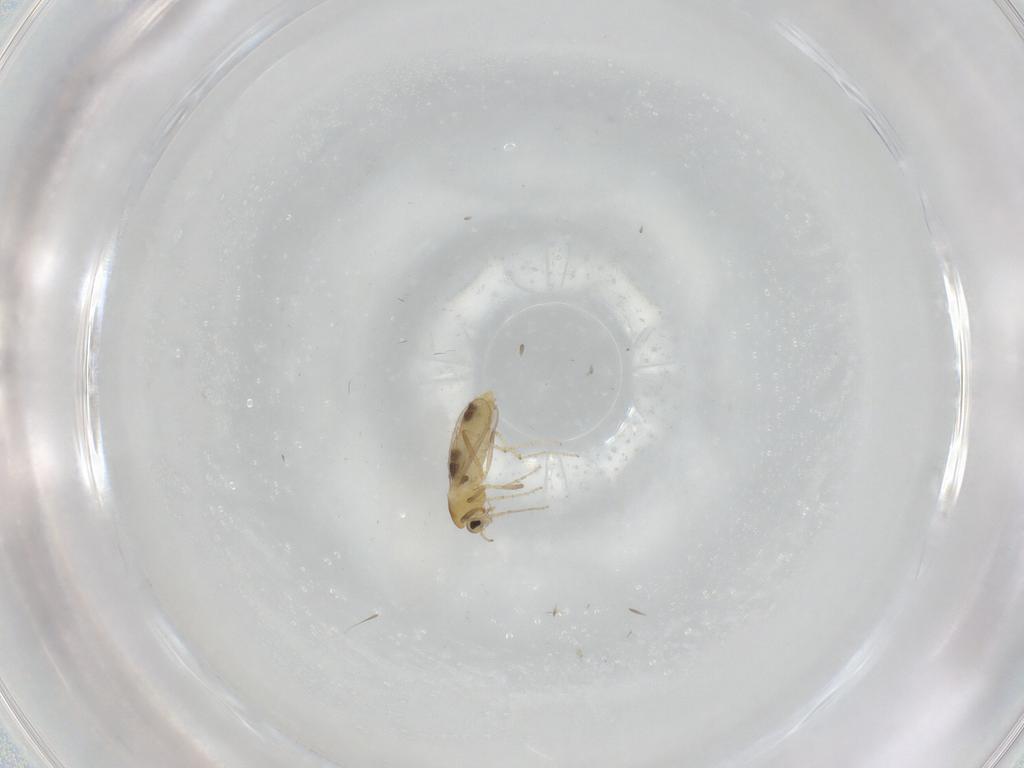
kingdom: Animalia
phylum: Arthropoda
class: Insecta
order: Diptera
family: Chironomidae
